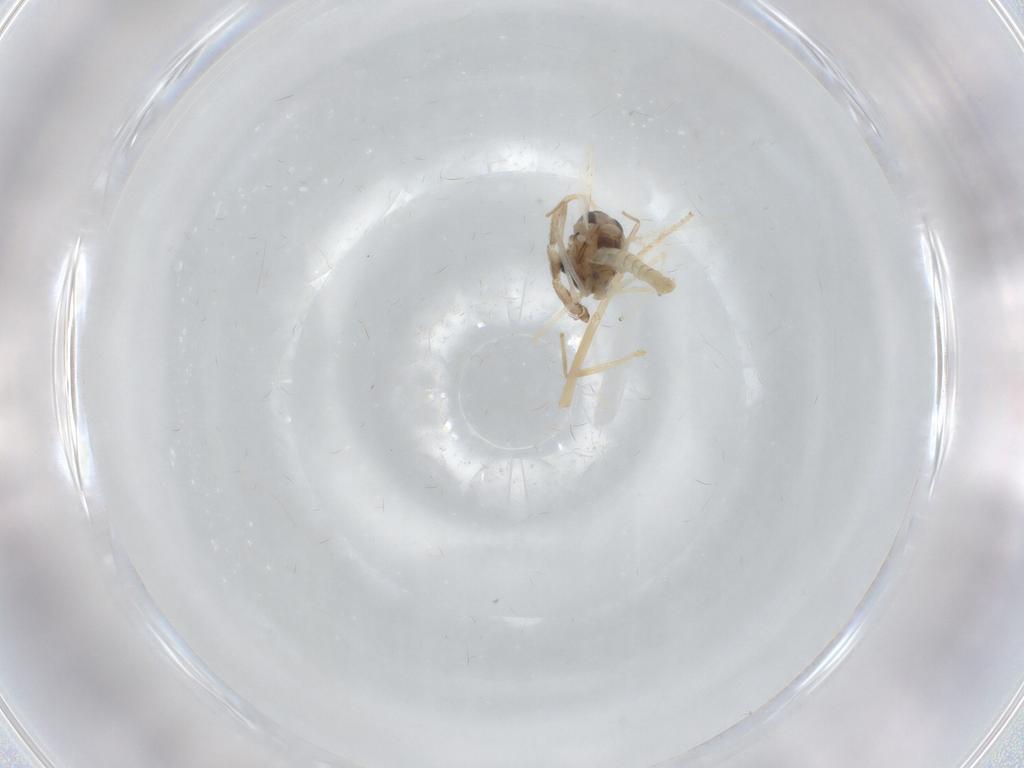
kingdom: Animalia
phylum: Arthropoda
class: Insecta
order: Diptera
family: Chironomidae
